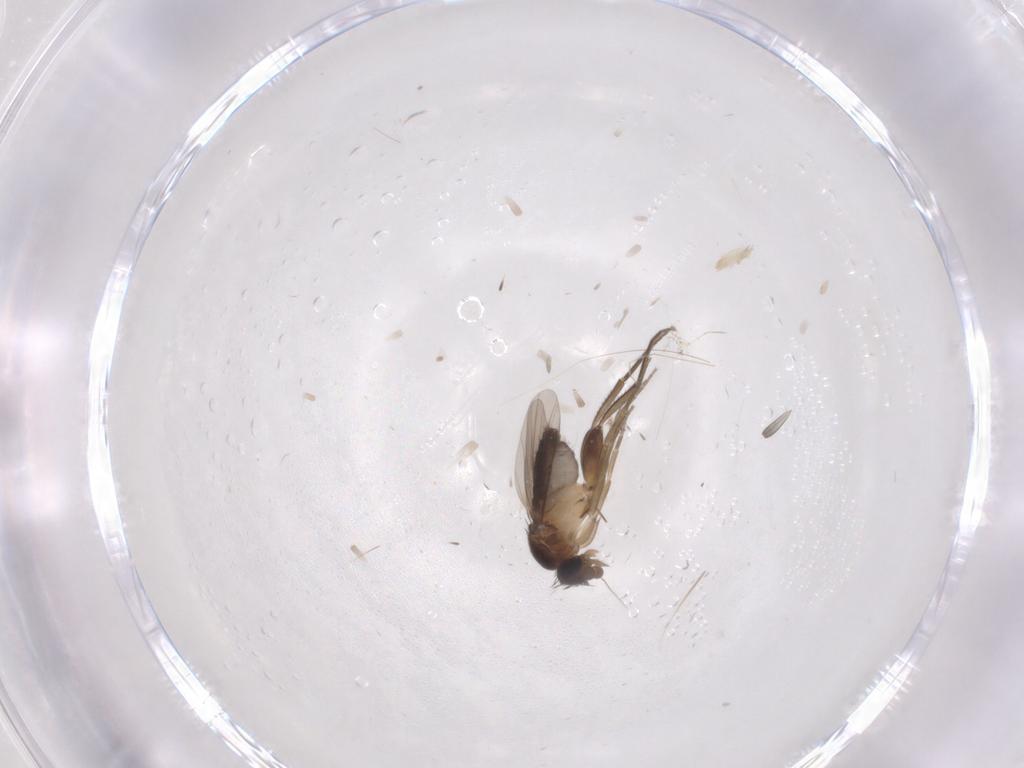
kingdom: Animalia
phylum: Arthropoda
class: Insecta
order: Diptera
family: Phoridae
